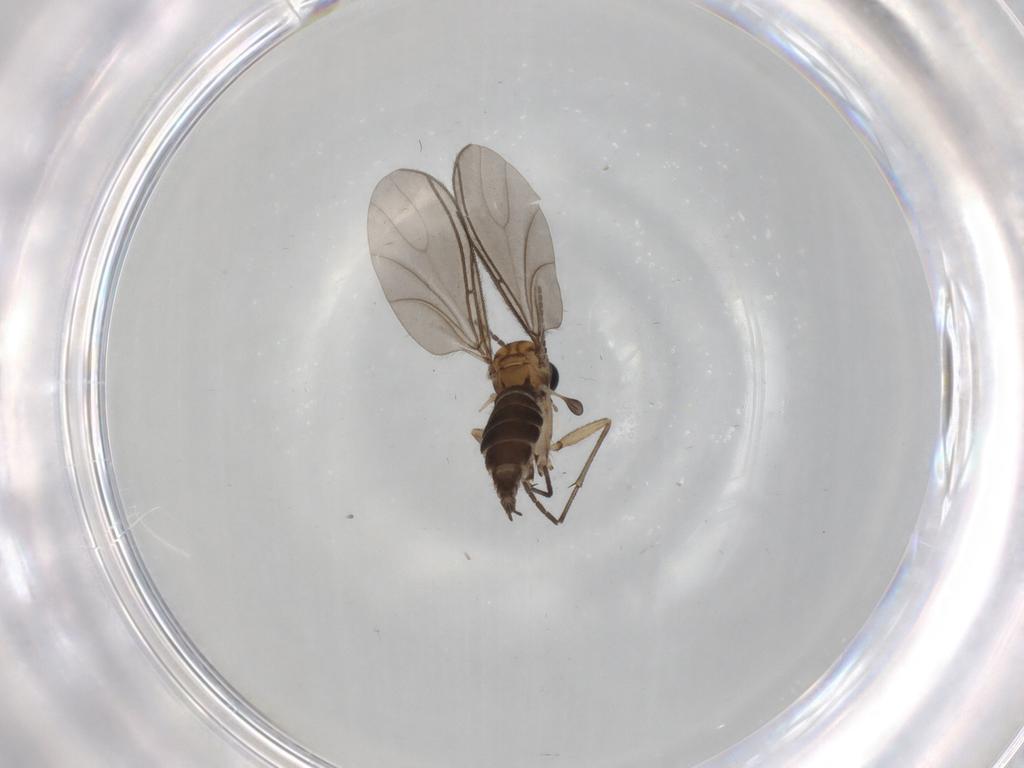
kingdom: Animalia
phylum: Arthropoda
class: Insecta
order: Diptera
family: Sciaridae
